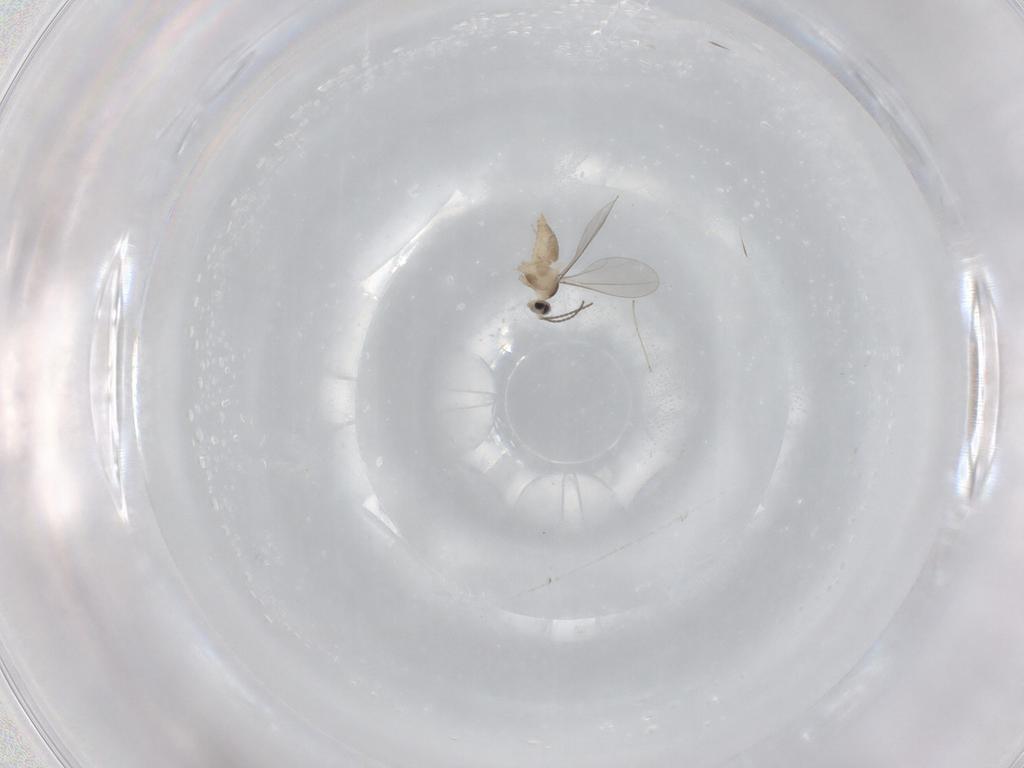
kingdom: Animalia
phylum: Arthropoda
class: Insecta
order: Diptera
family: Cecidomyiidae
